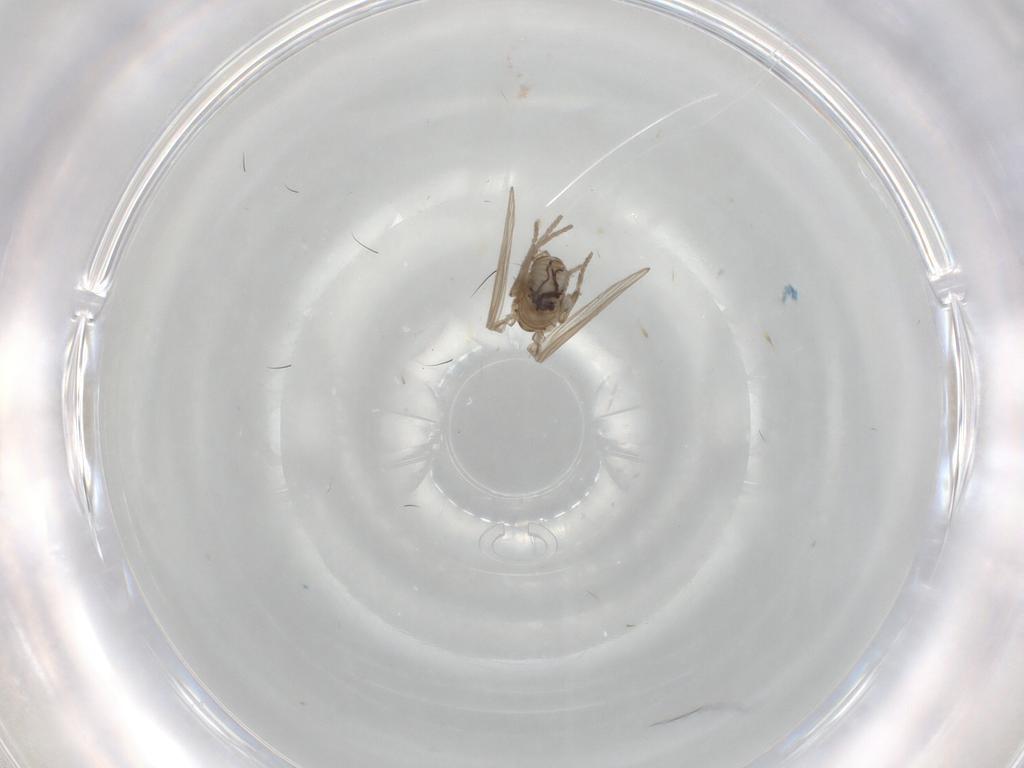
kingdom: Animalia
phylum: Arthropoda
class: Insecta
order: Diptera
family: Psychodidae
